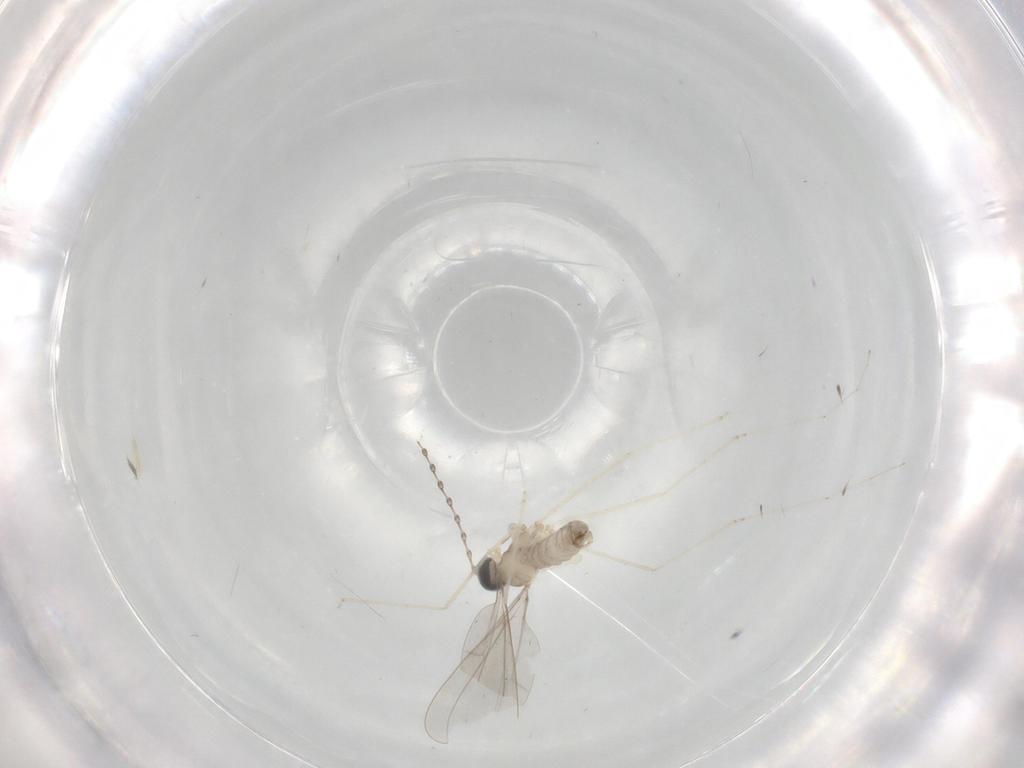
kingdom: Animalia
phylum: Arthropoda
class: Insecta
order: Diptera
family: Cecidomyiidae
